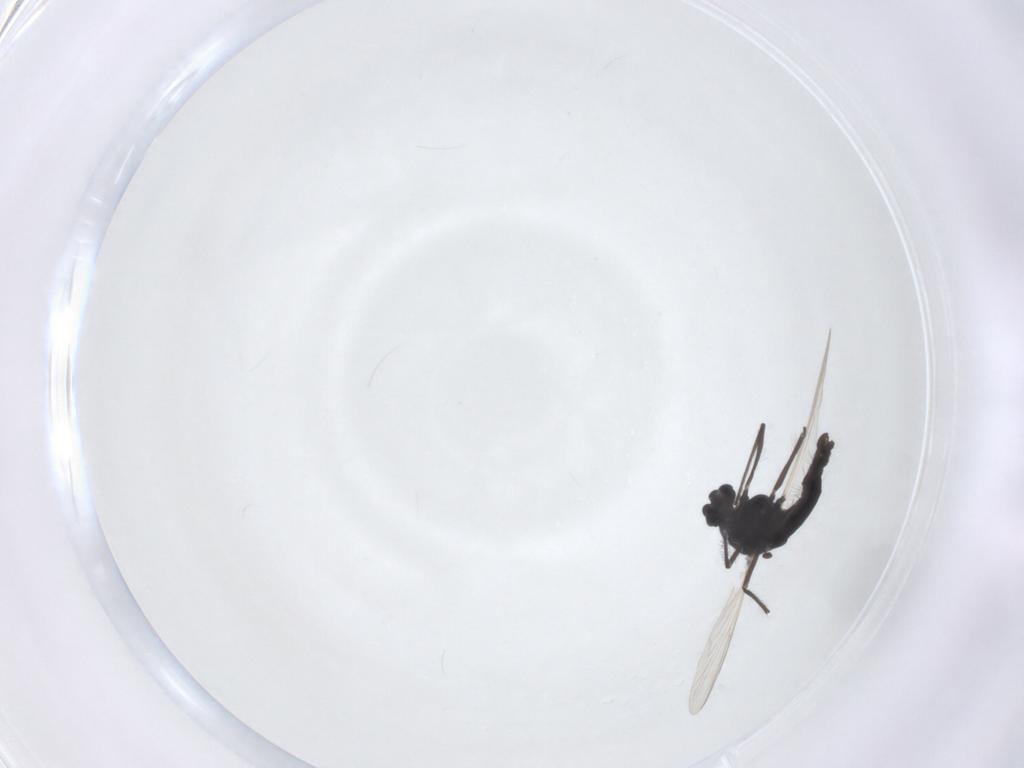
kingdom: Animalia
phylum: Arthropoda
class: Insecta
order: Diptera
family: Chironomidae
